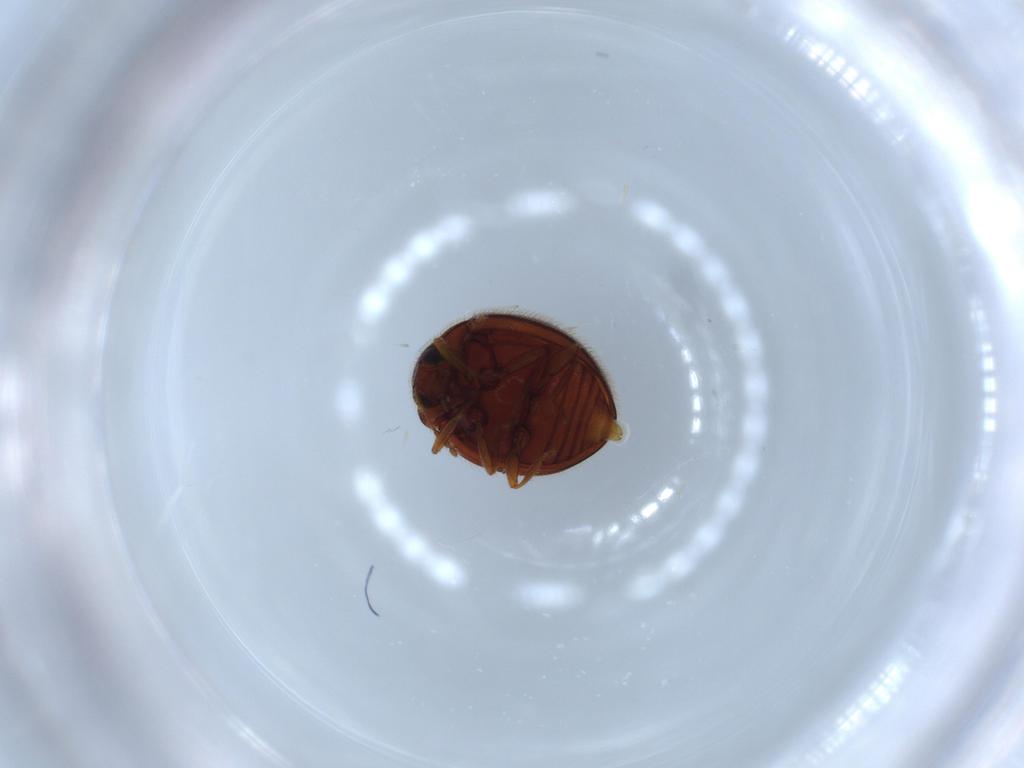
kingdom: Animalia
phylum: Arthropoda
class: Insecta
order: Coleoptera
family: Anamorphidae
